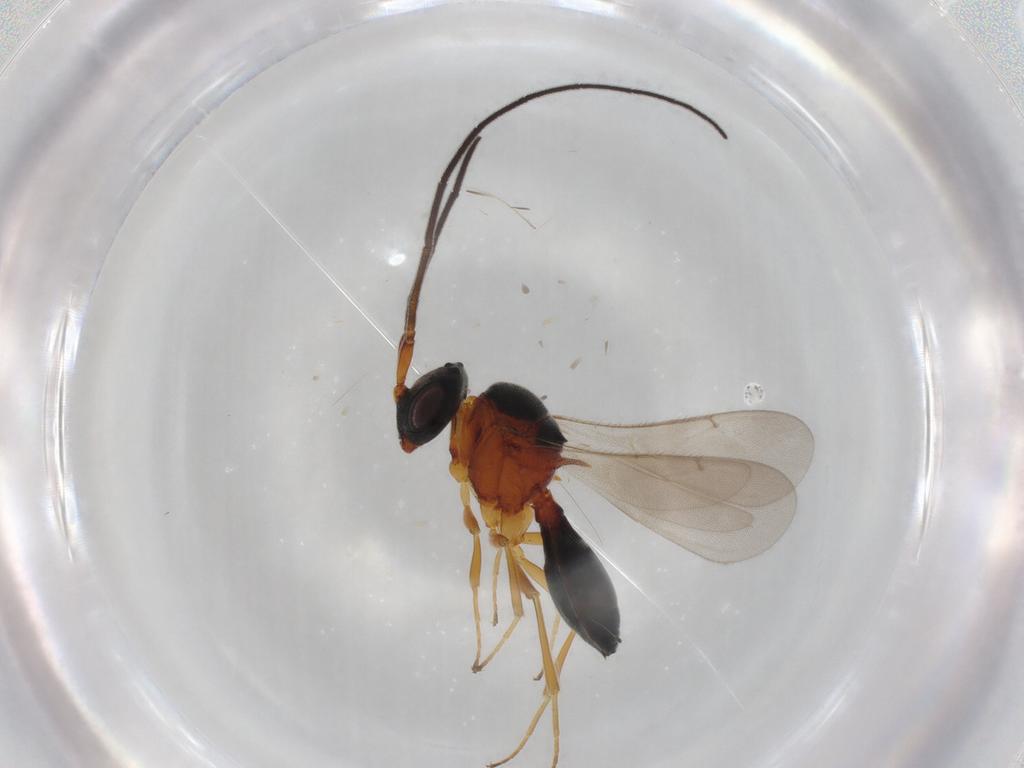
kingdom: Animalia
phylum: Arthropoda
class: Insecta
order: Hymenoptera
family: Scelionidae
